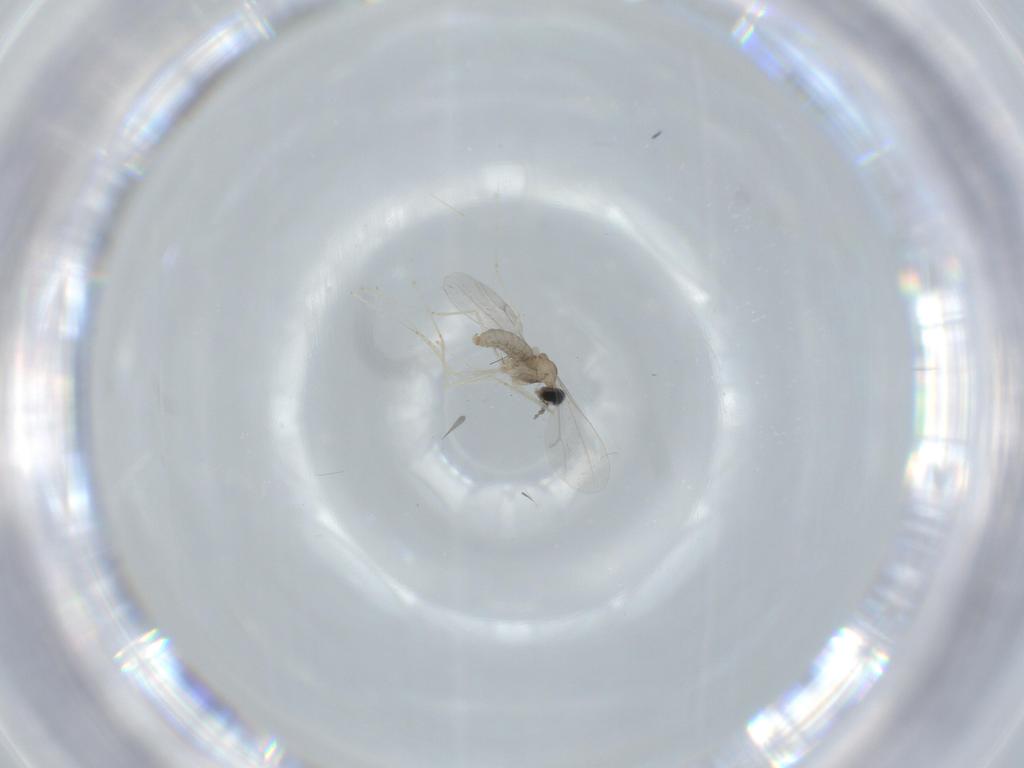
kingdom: Animalia
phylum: Arthropoda
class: Insecta
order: Diptera
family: Cecidomyiidae
